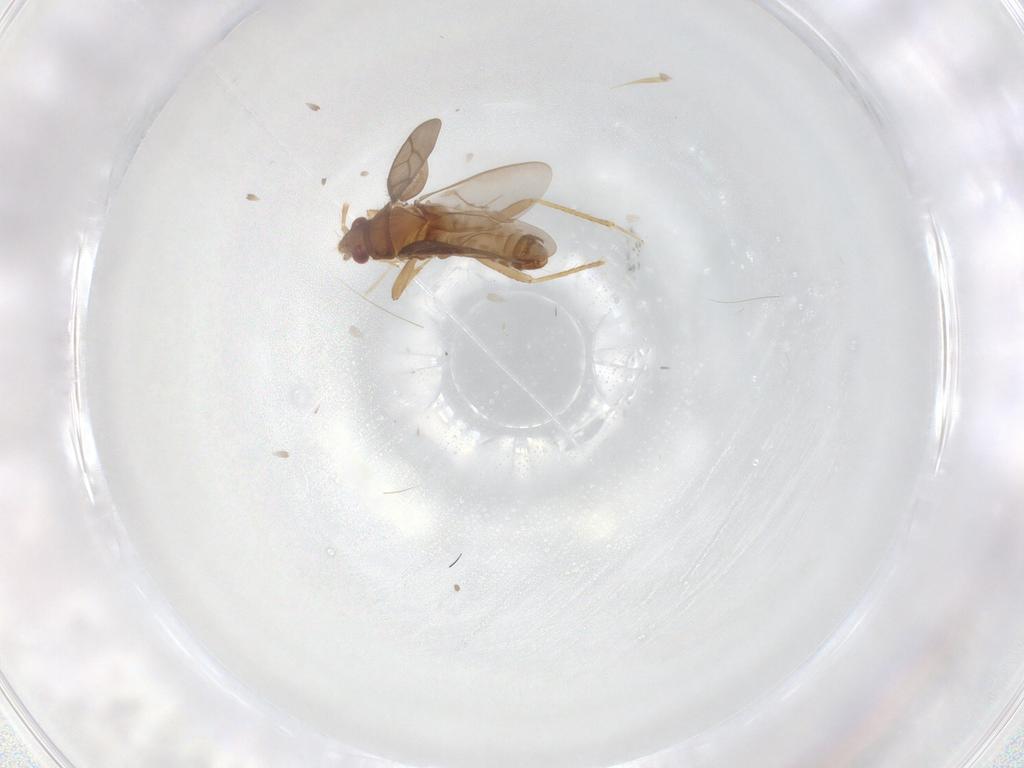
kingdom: Animalia
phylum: Arthropoda
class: Insecta
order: Hemiptera
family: Ceratocombidae
